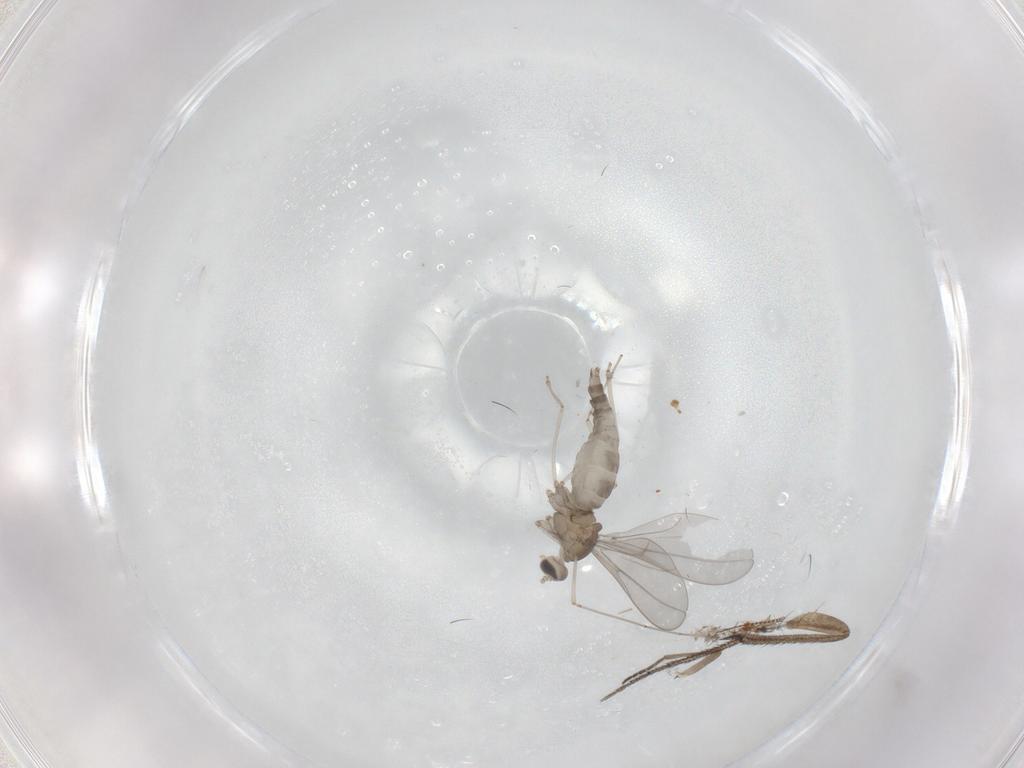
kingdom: Animalia
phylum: Arthropoda
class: Insecta
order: Diptera
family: Cecidomyiidae
